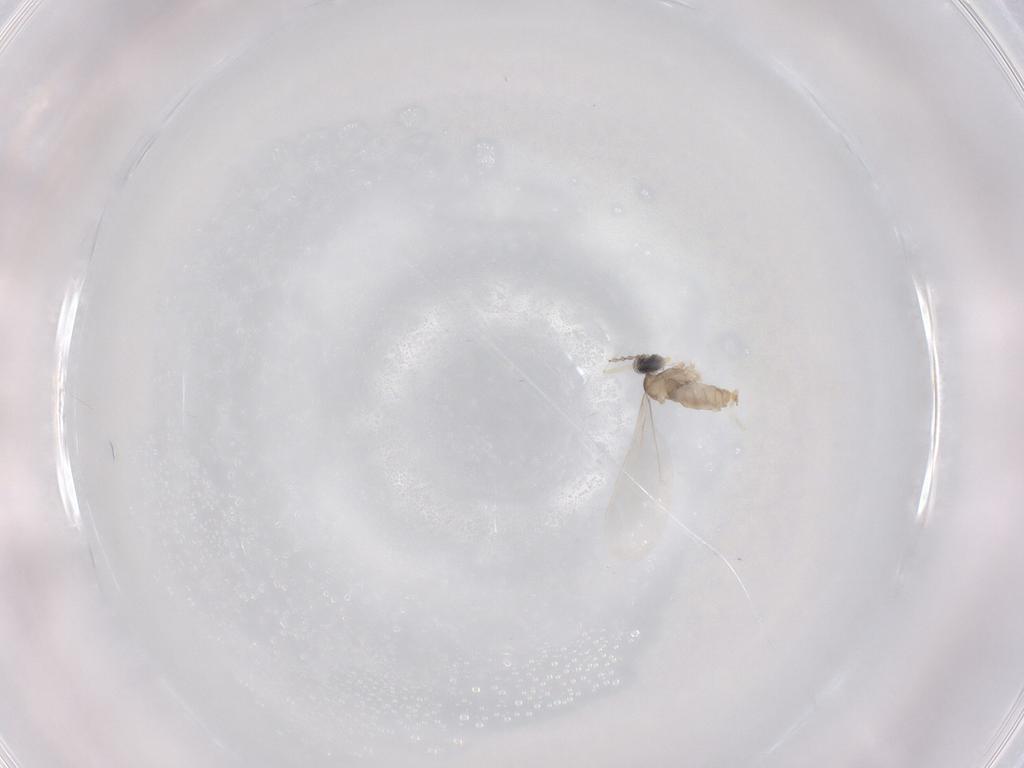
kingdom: Animalia
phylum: Arthropoda
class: Insecta
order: Diptera
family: Cecidomyiidae
